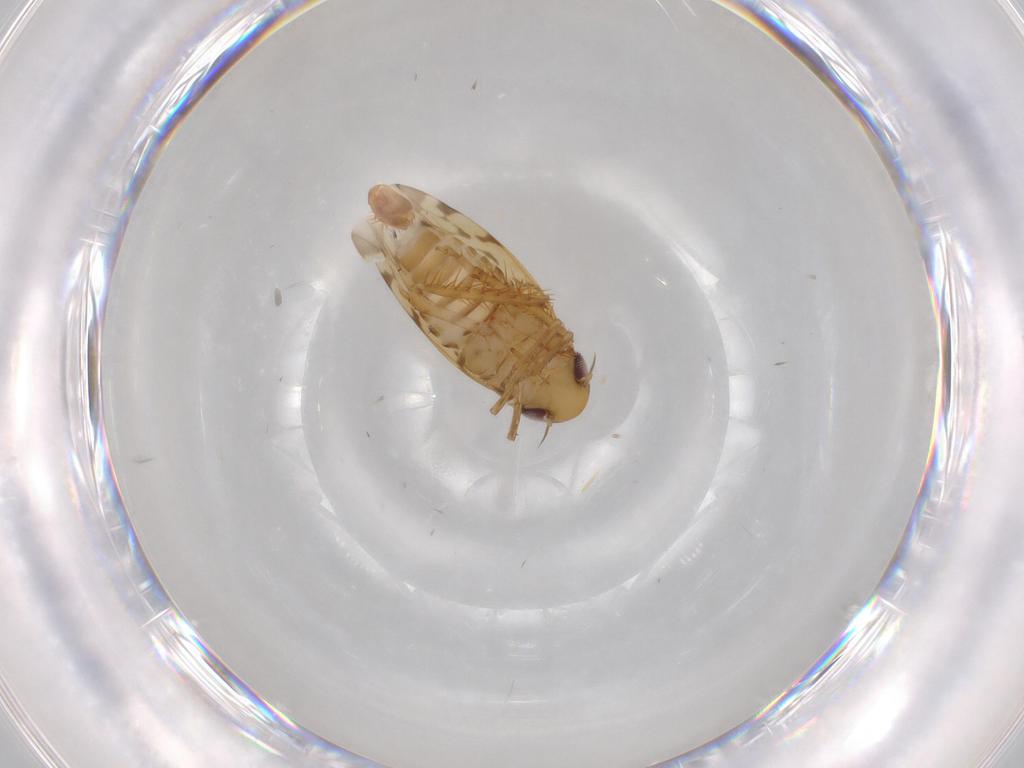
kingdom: Animalia
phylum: Arthropoda
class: Insecta
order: Hemiptera
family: Cicadellidae
